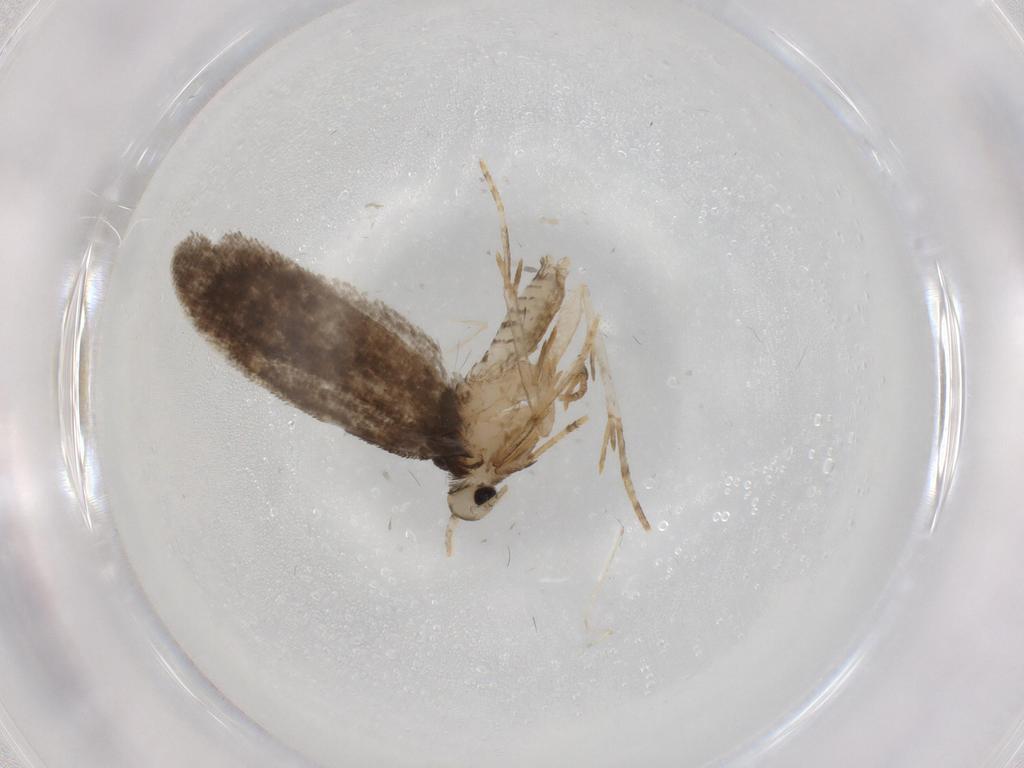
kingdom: Animalia
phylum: Arthropoda
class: Insecta
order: Lepidoptera
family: Psychidae
